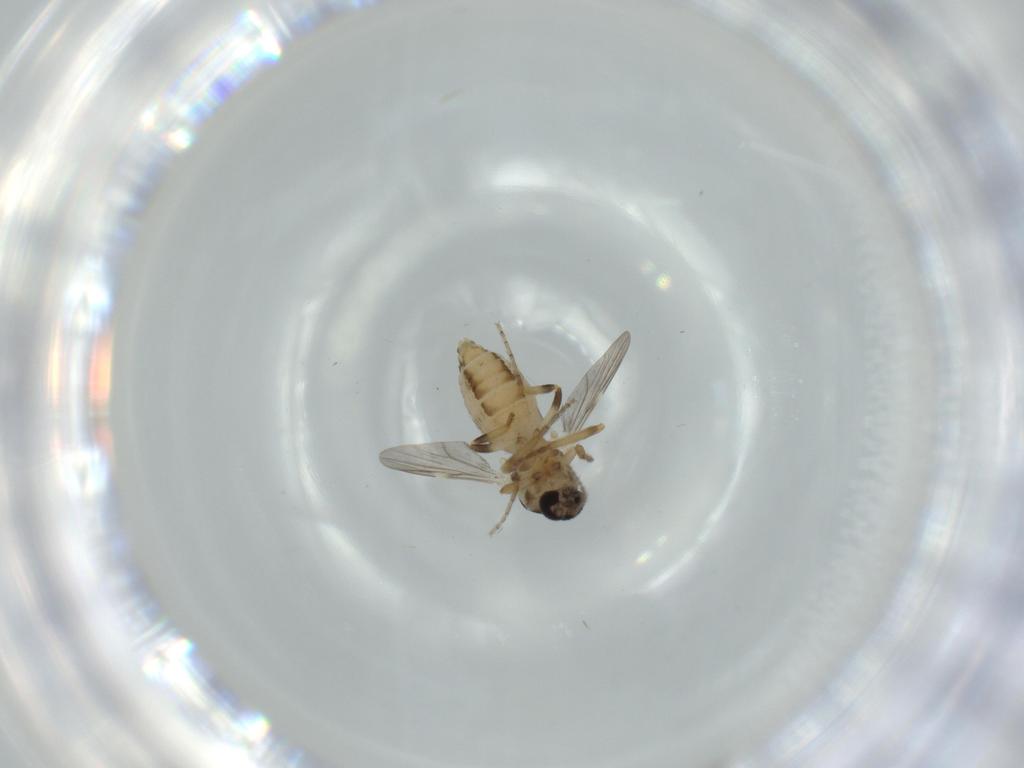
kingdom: Animalia
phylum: Arthropoda
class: Insecta
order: Diptera
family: Ceratopogonidae
